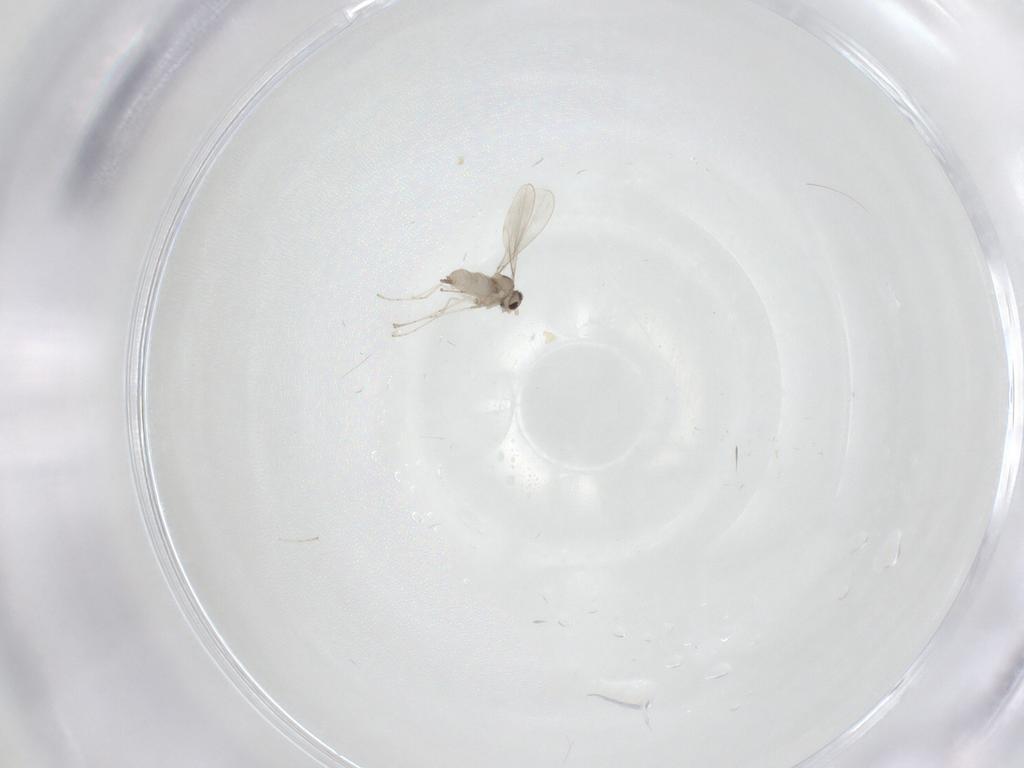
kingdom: Animalia
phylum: Arthropoda
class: Insecta
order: Diptera
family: Cecidomyiidae
